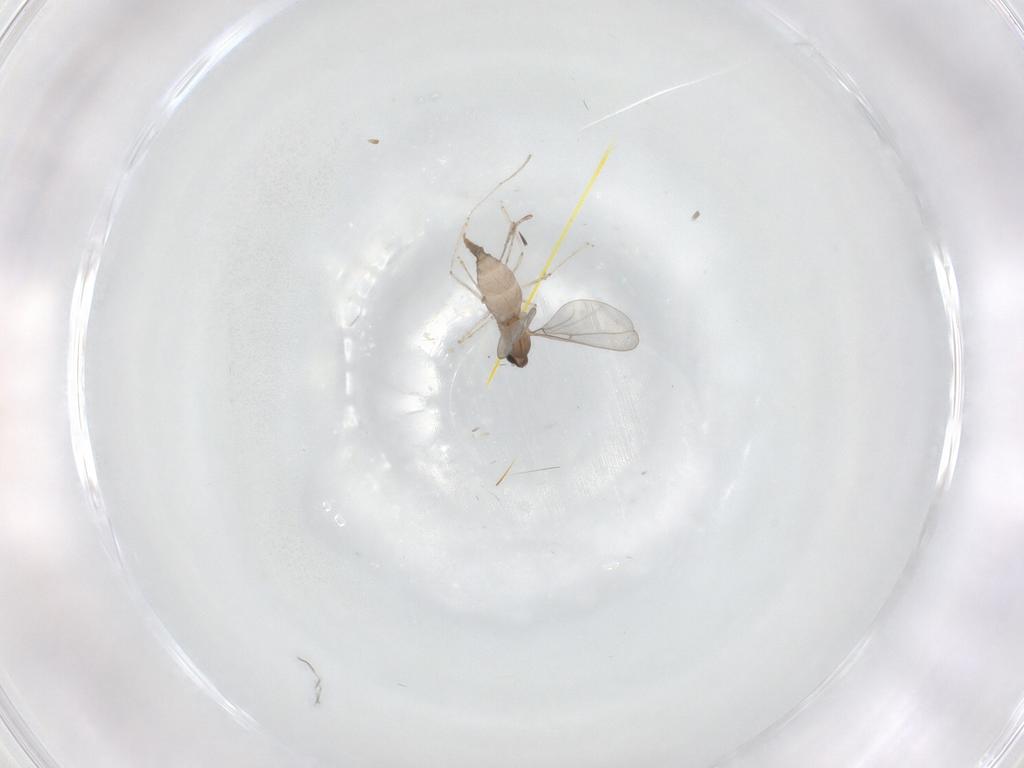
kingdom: Animalia
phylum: Arthropoda
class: Insecta
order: Diptera
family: Cecidomyiidae
